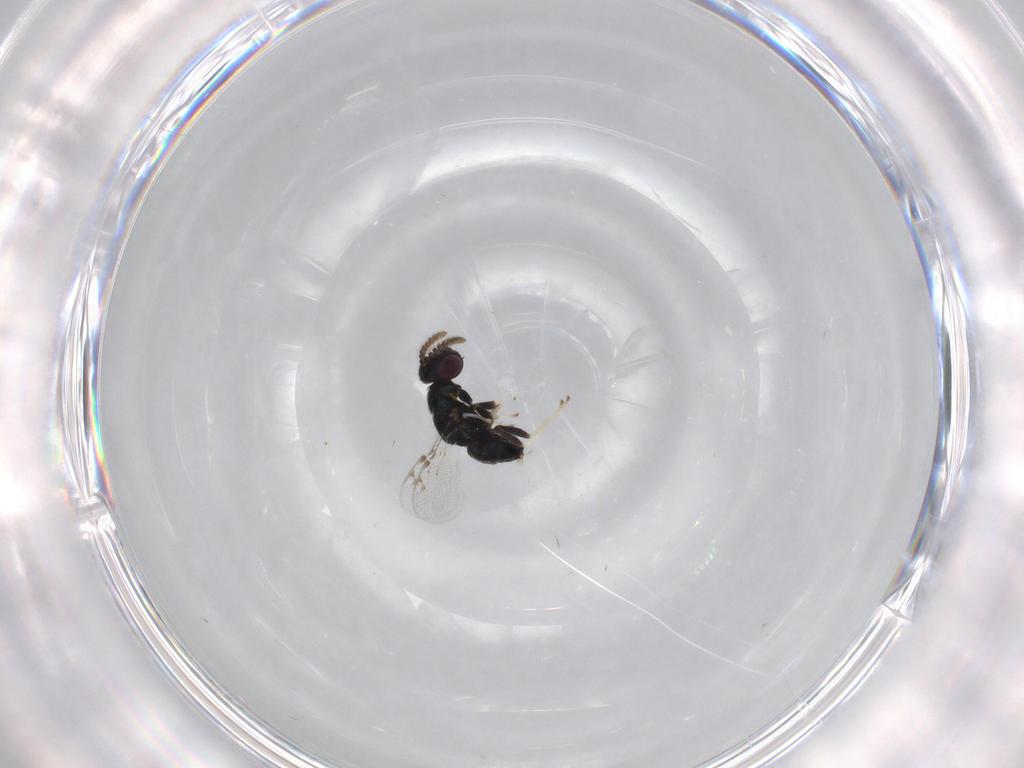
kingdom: Animalia
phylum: Arthropoda
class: Insecta
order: Hymenoptera
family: Pirenidae
